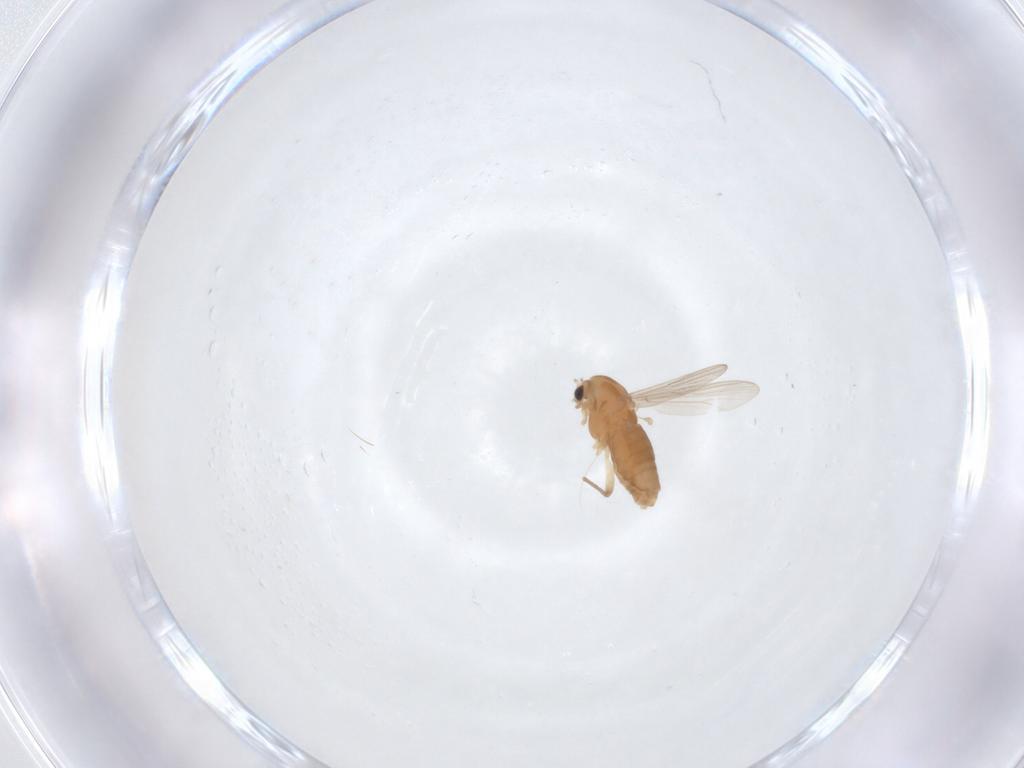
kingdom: Animalia
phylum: Arthropoda
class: Insecta
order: Diptera
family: Chironomidae
